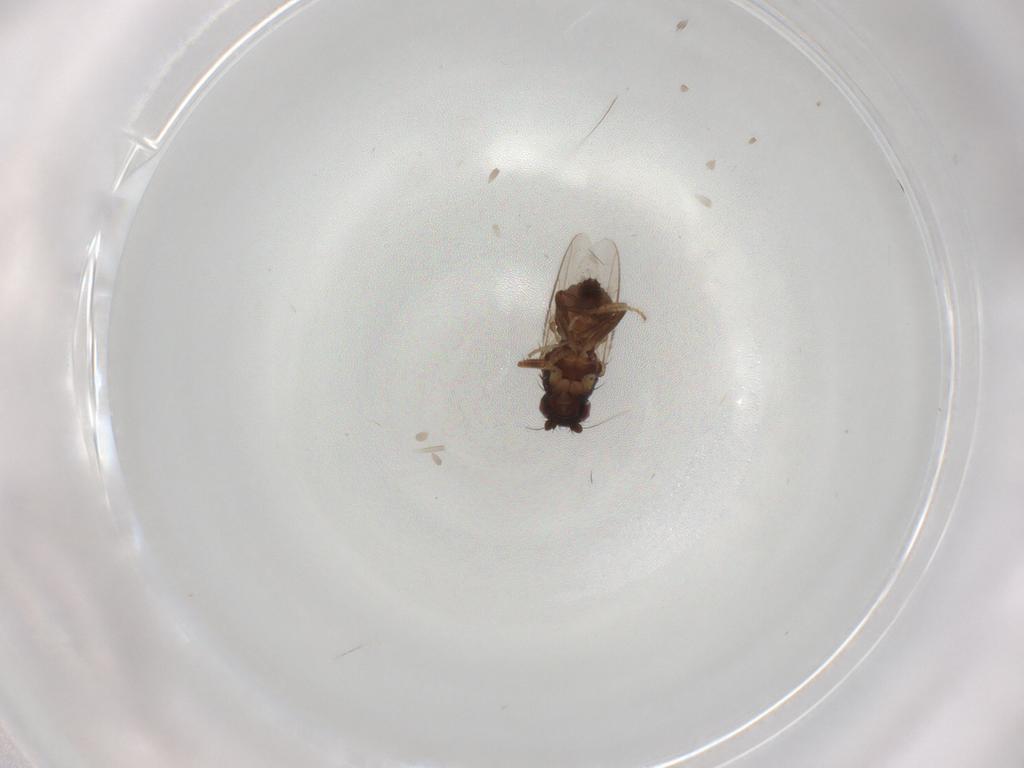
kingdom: Animalia
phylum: Arthropoda
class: Insecta
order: Diptera
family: Sphaeroceridae
